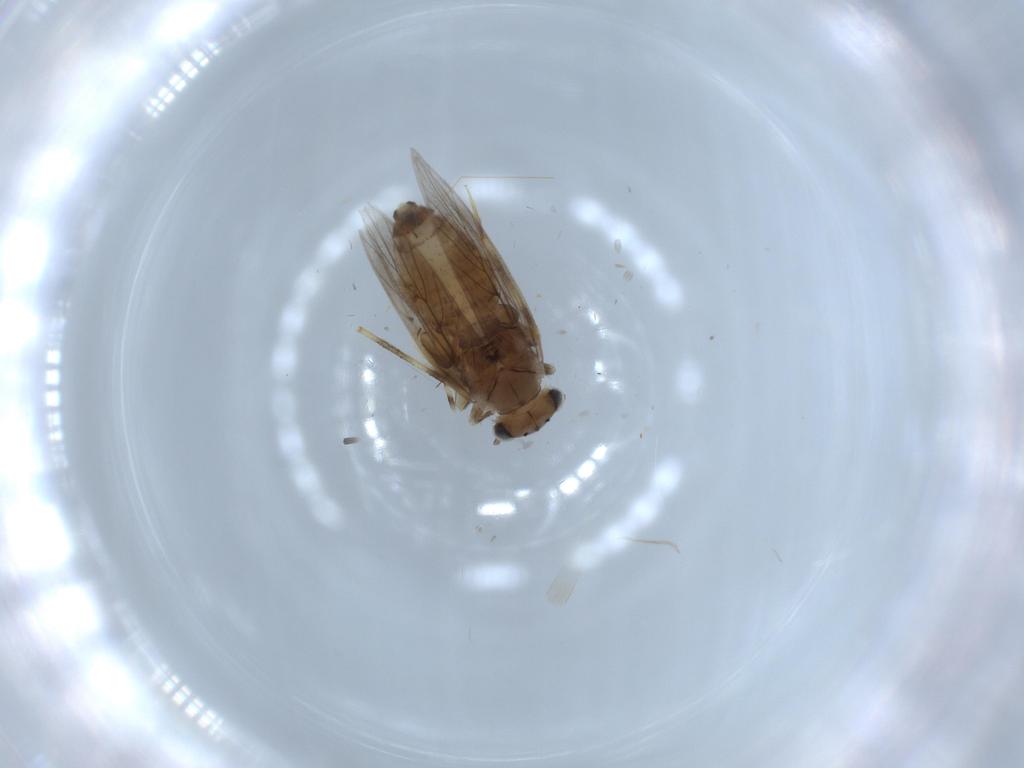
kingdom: Animalia
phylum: Arthropoda
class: Insecta
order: Psocodea
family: Lepidopsocidae
